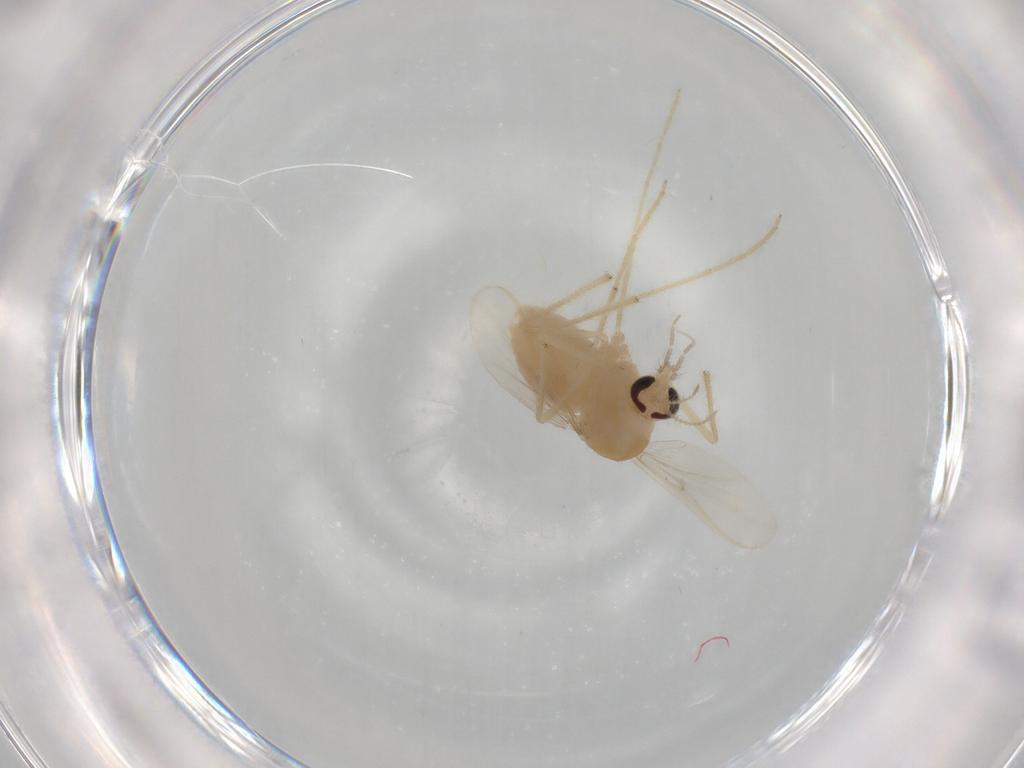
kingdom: Animalia
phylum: Arthropoda
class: Insecta
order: Diptera
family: Chironomidae
